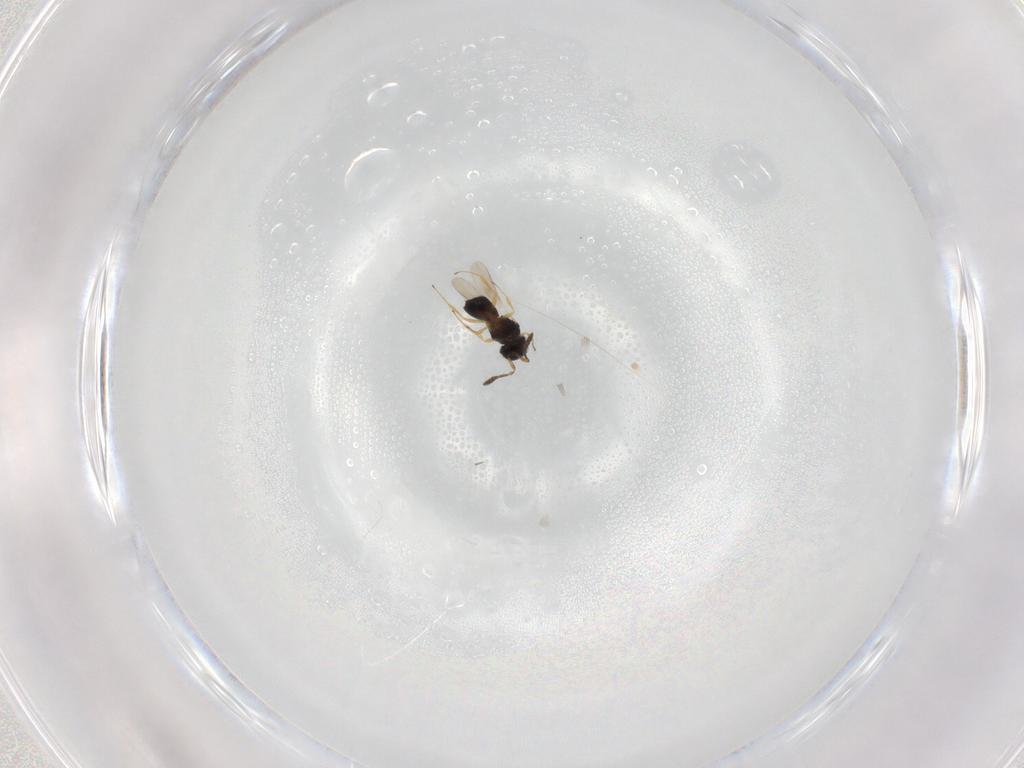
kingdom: Animalia
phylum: Arthropoda
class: Insecta
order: Hymenoptera
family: Scelionidae
